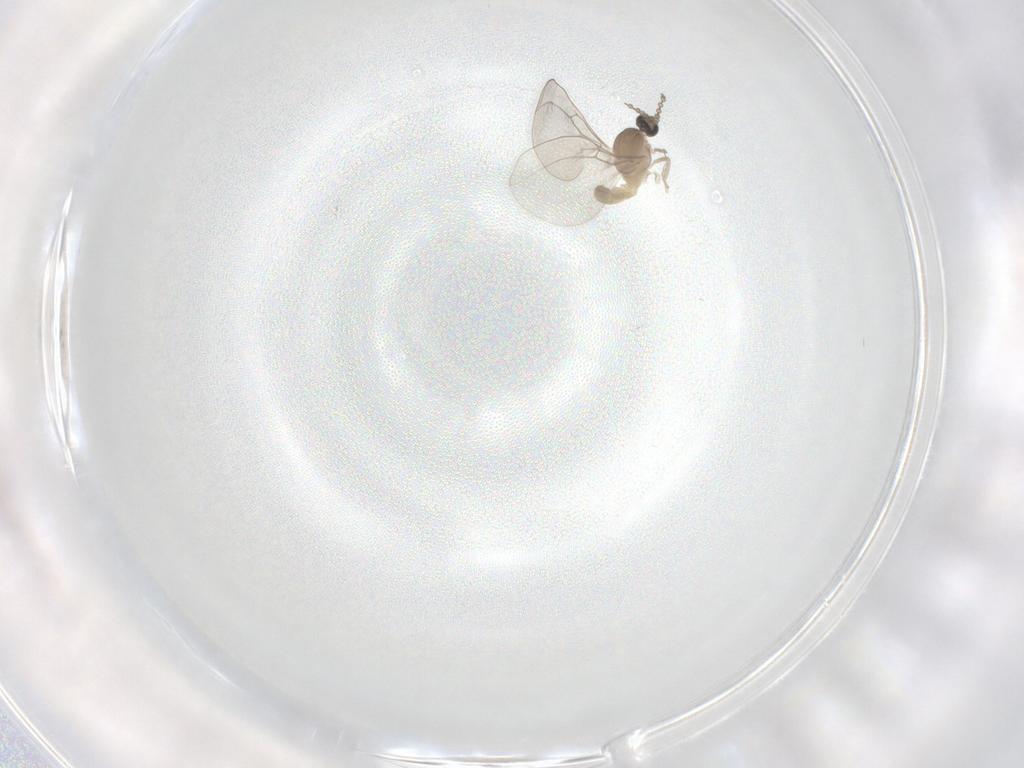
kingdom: Animalia
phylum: Arthropoda
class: Insecta
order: Diptera
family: Cecidomyiidae
